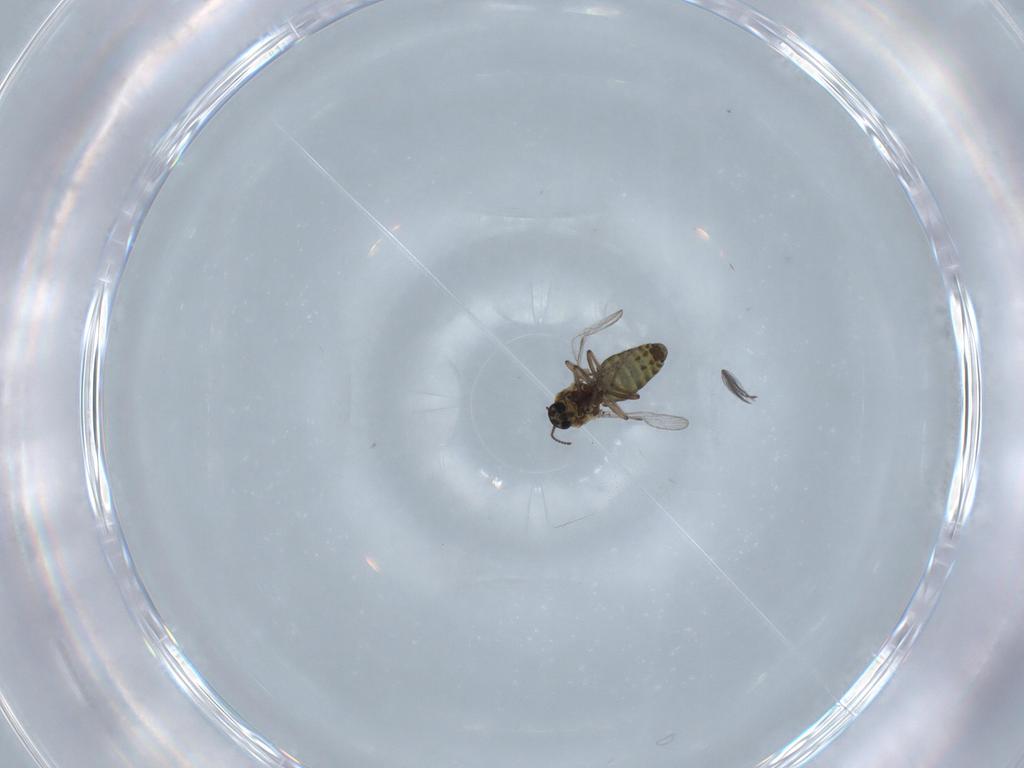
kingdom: Animalia
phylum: Arthropoda
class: Insecta
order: Diptera
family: Ceratopogonidae
